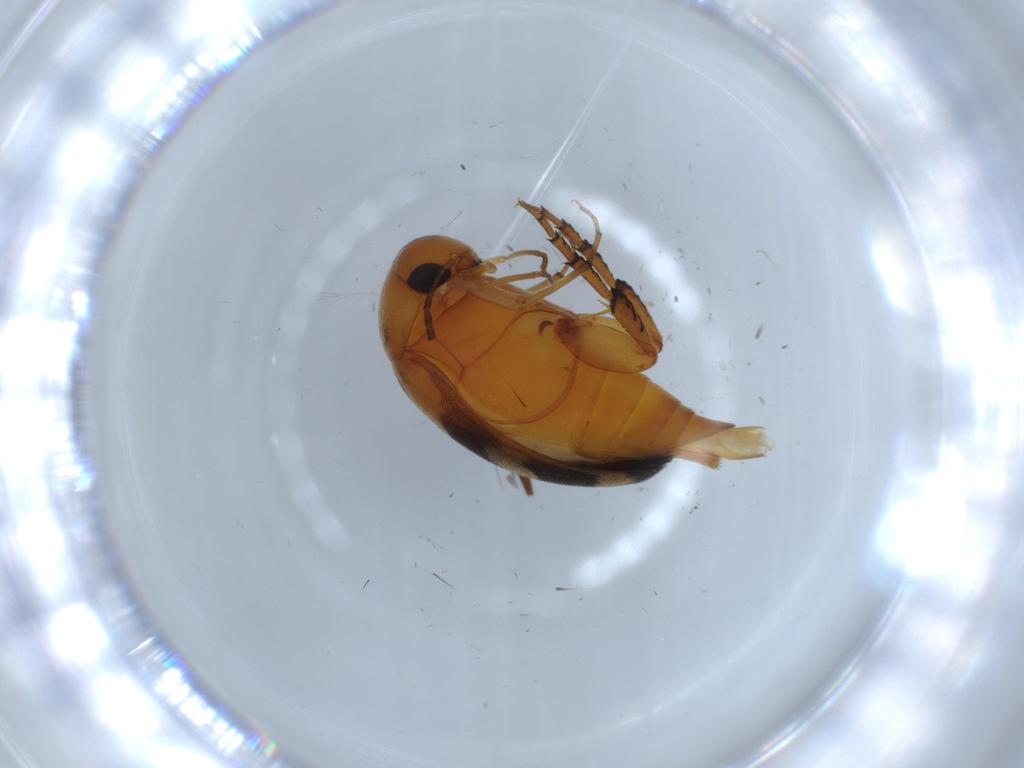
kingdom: Animalia
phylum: Arthropoda
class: Insecta
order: Coleoptera
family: Mordellidae
